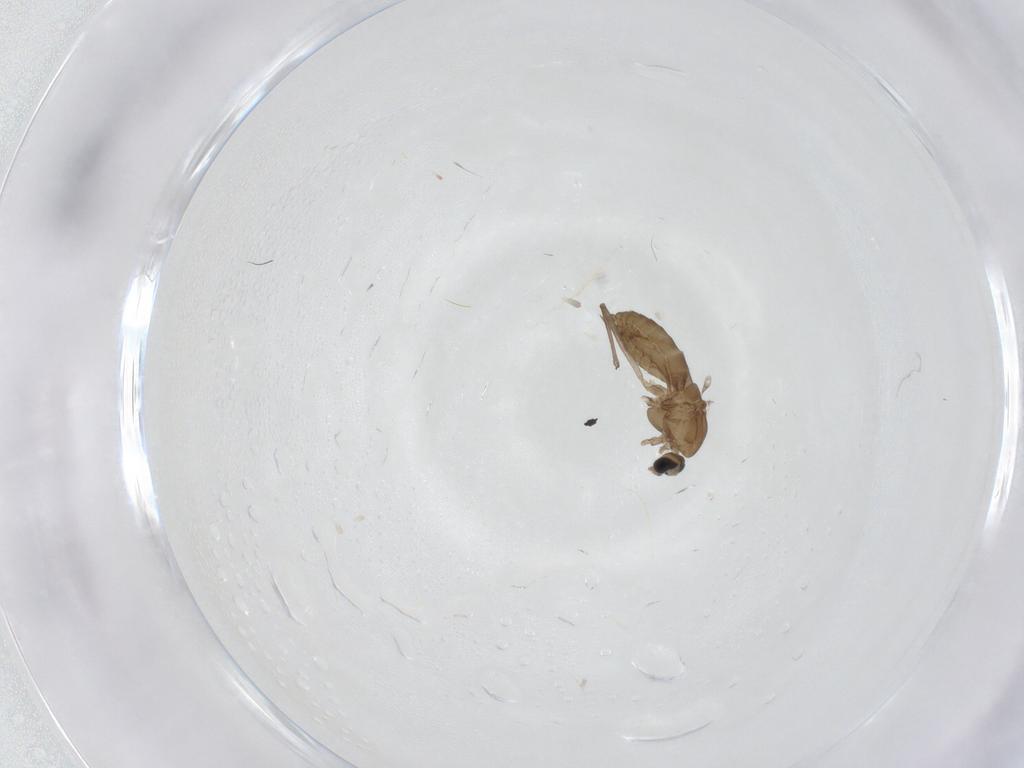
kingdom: Animalia
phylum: Arthropoda
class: Insecta
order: Diptera
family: Chironomidae
